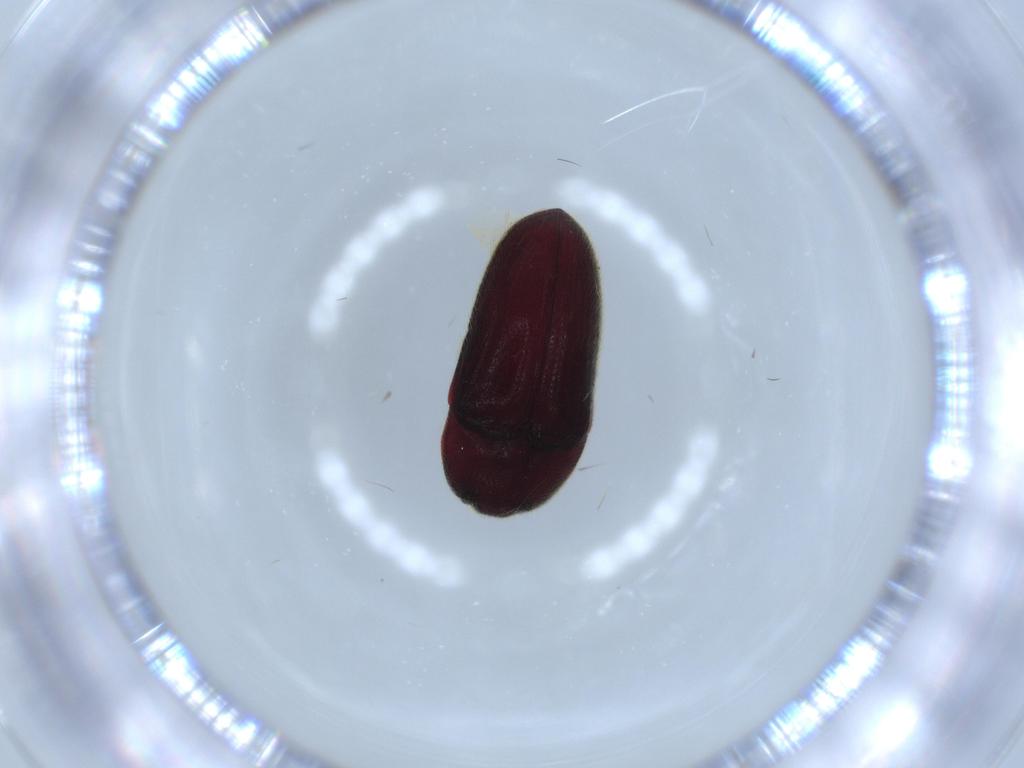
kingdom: Animalia
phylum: Arthropoda
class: Insecta
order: Coleoptera
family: Throscidae
